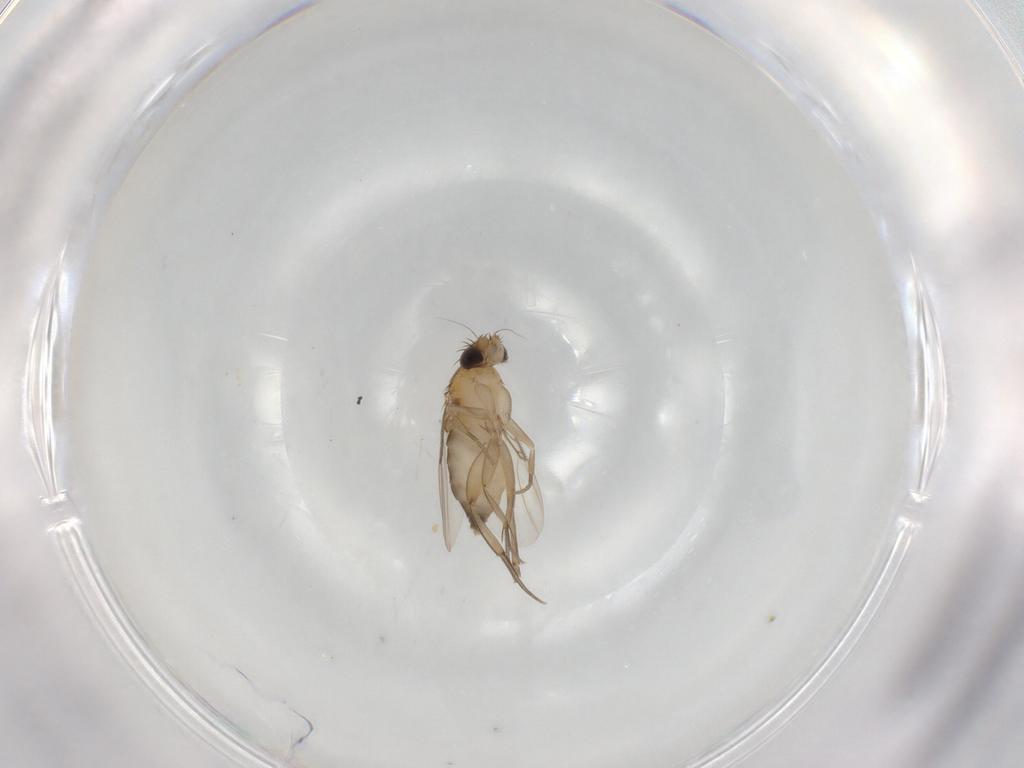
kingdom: Animalia
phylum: Arthropoda
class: Insecta
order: Diptera
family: Phoridae
